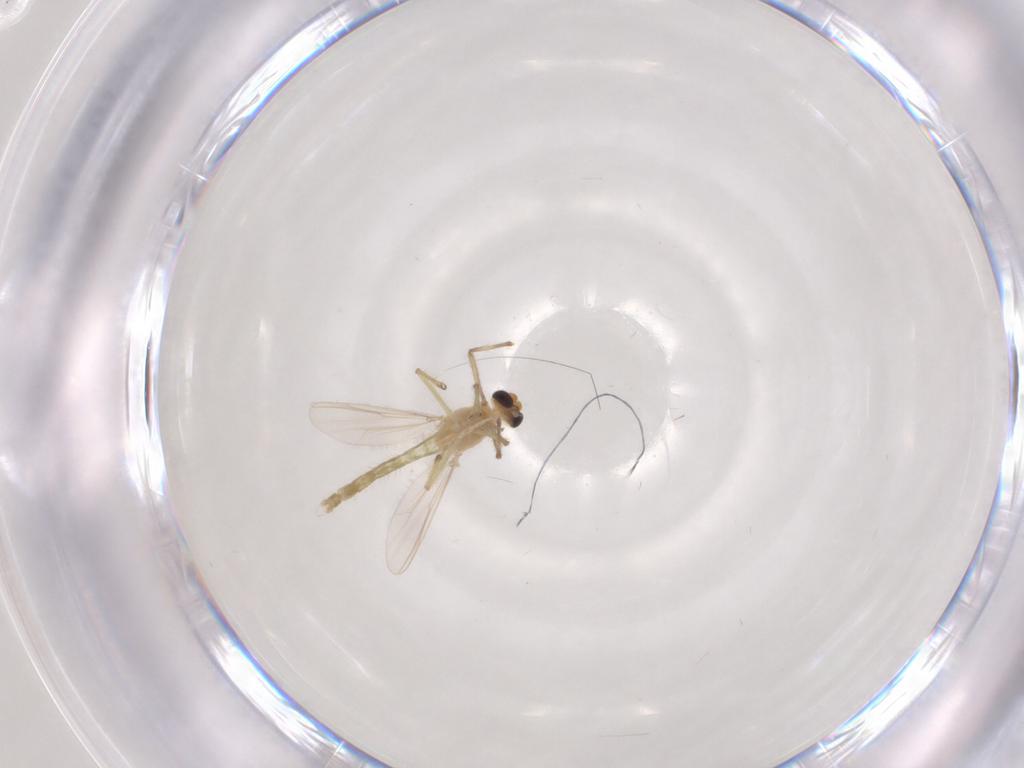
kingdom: Animalia
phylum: Arthropoda
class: Insecta
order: Diptera
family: Chironomidae
